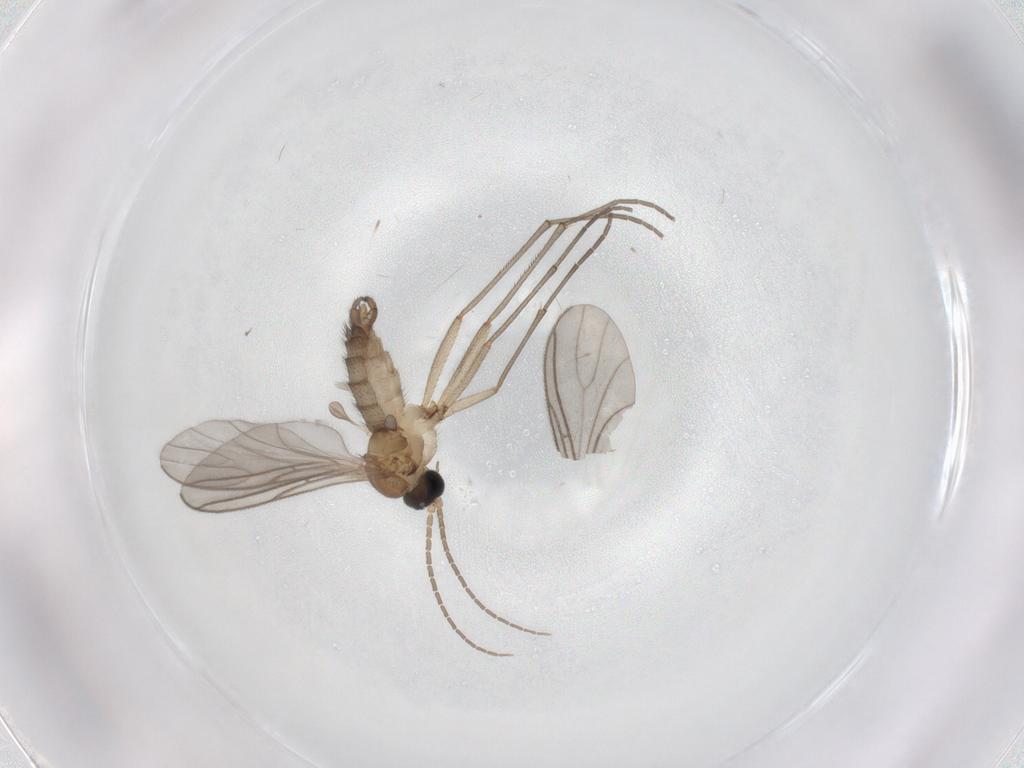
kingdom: Animalia
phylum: Arthropoda
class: Insecta
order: Diptera
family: Sciaridae
